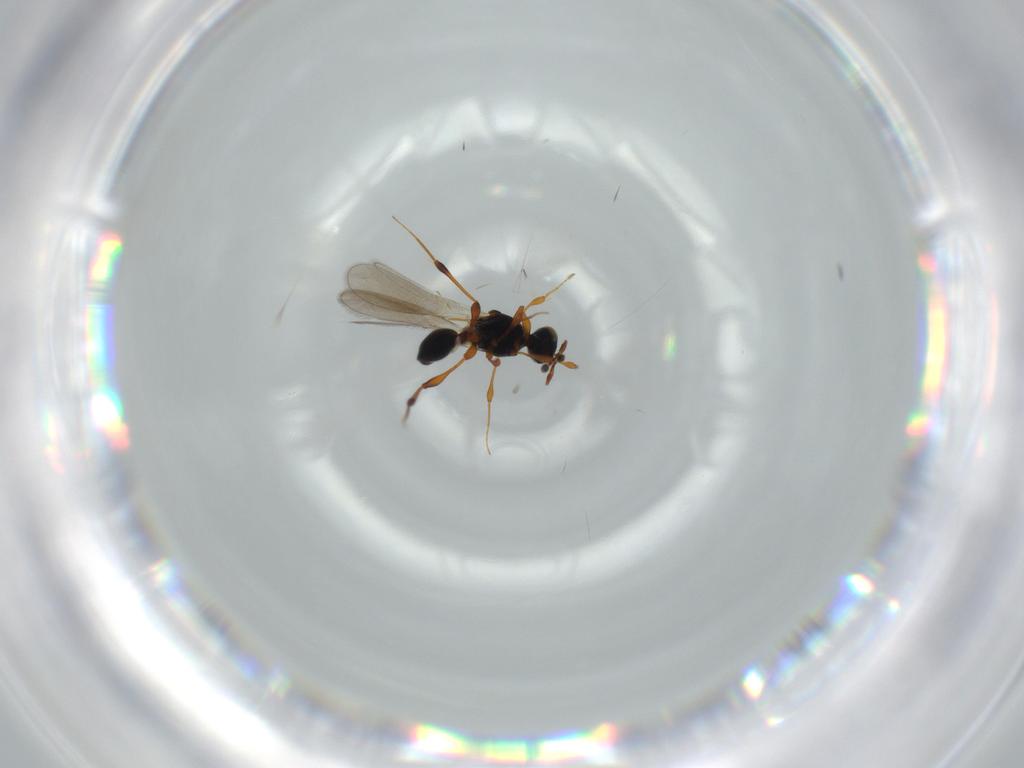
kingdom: Animalia
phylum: Arthropoda
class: Insecta
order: Hymenoptera
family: Platygastridae
